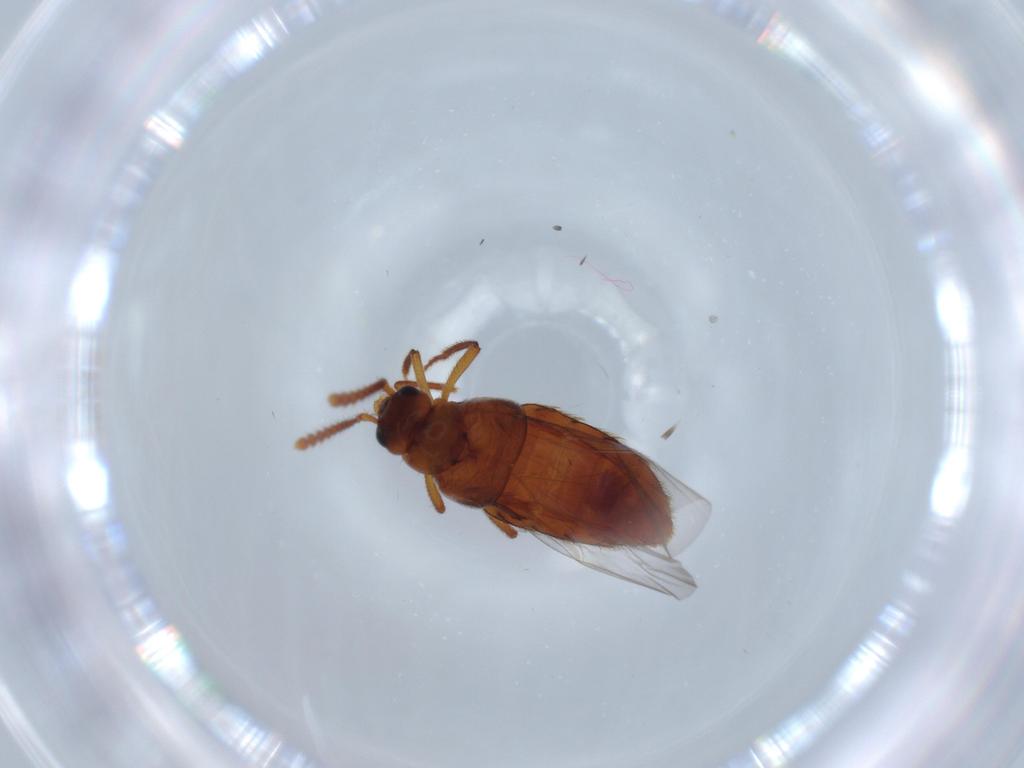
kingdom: Animalia
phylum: Arthropoda
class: Insecta
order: Coleoptera
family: Staphylinidae
